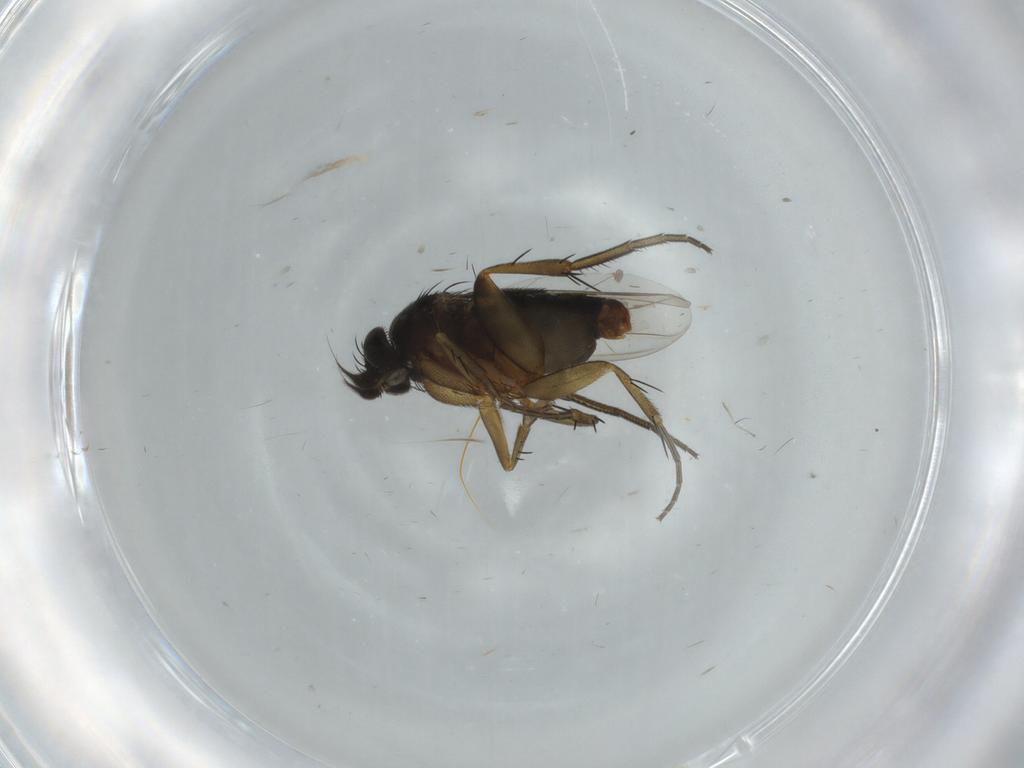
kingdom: Animalia
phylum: Arthropoda
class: Insecta
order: Diptera
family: Phoridae
